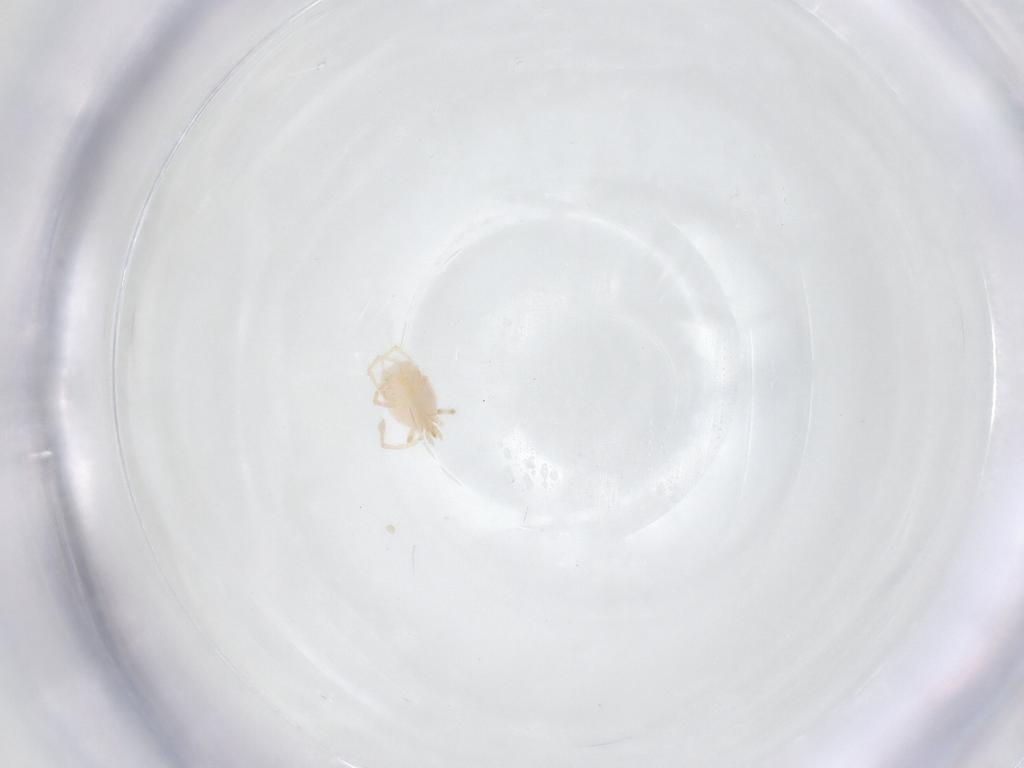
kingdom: Animalia
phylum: Arthropoda
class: Arachnida
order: Trombidiformes
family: Erythraeidae
